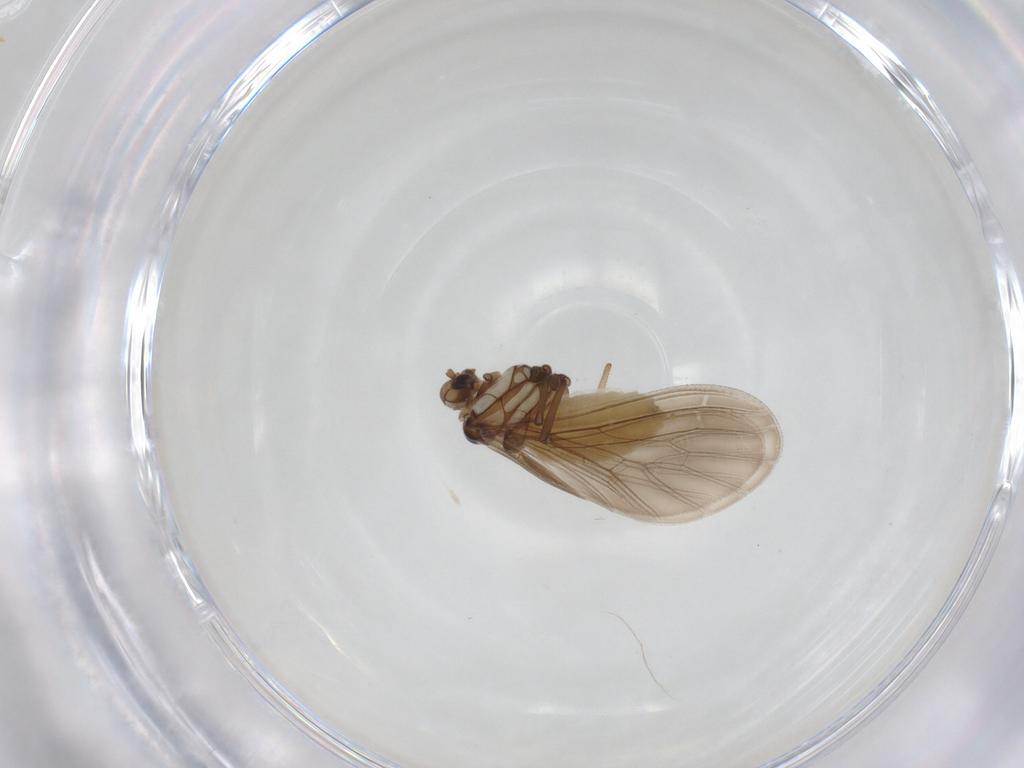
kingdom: Animalia
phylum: Arthropoda
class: Insecta
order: Neuroptera
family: Coniopterygidae
